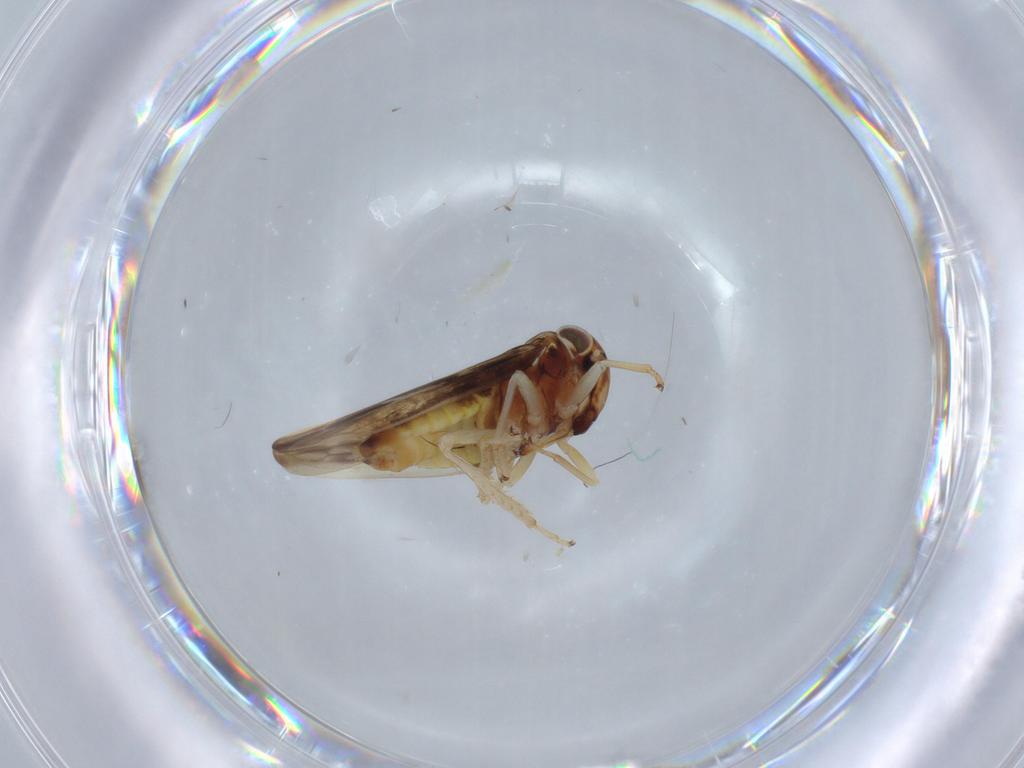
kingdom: Animalia
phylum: Arthropoda
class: Insecta
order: Hemiptera
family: Cicadellidae
